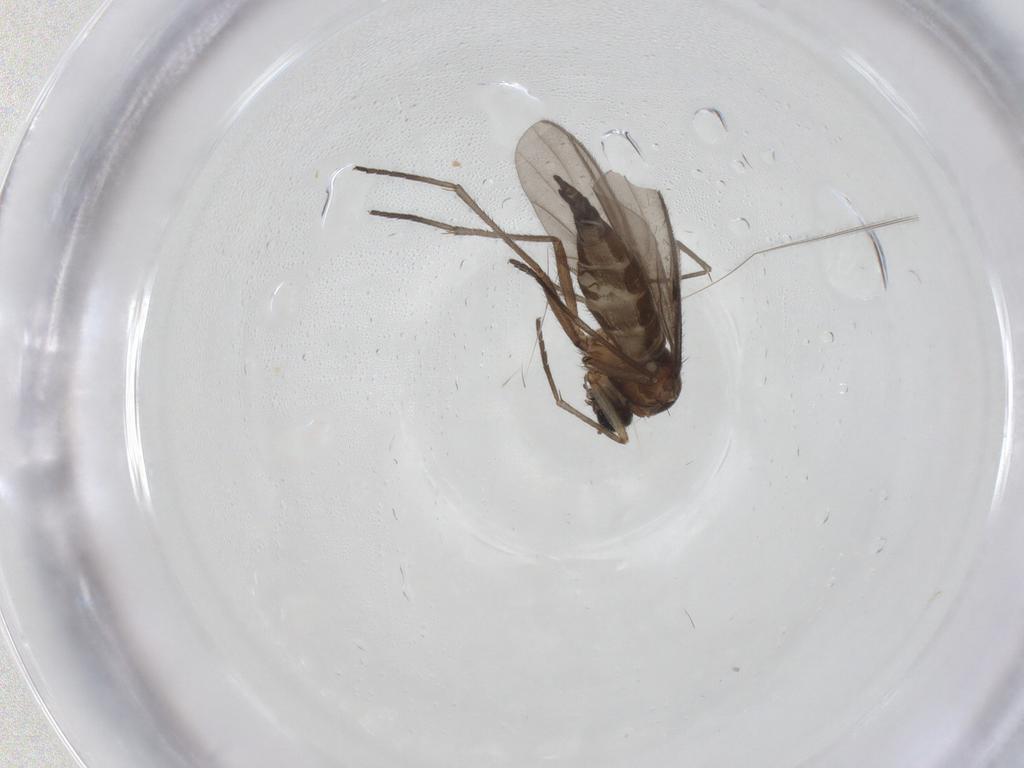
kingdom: Animalia
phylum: Arthropoda
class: Insecta
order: Diptera
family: Sciaridae
